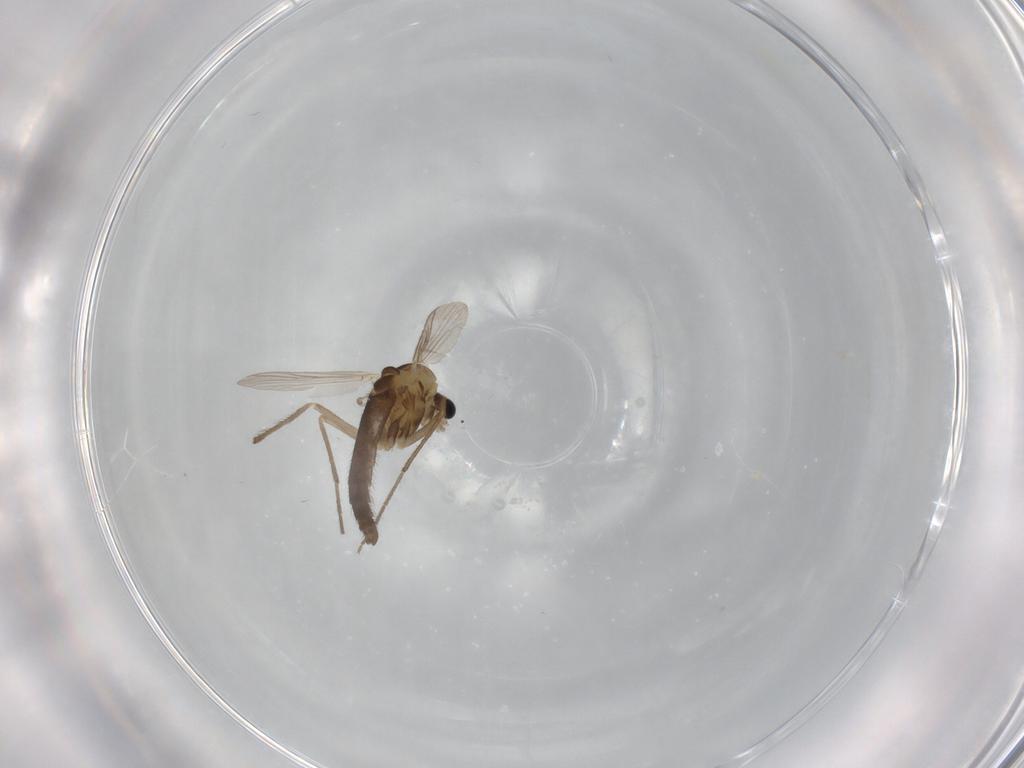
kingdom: Animalia
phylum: Arthropoda
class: Insecta
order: Diptera
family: Chironomidae
